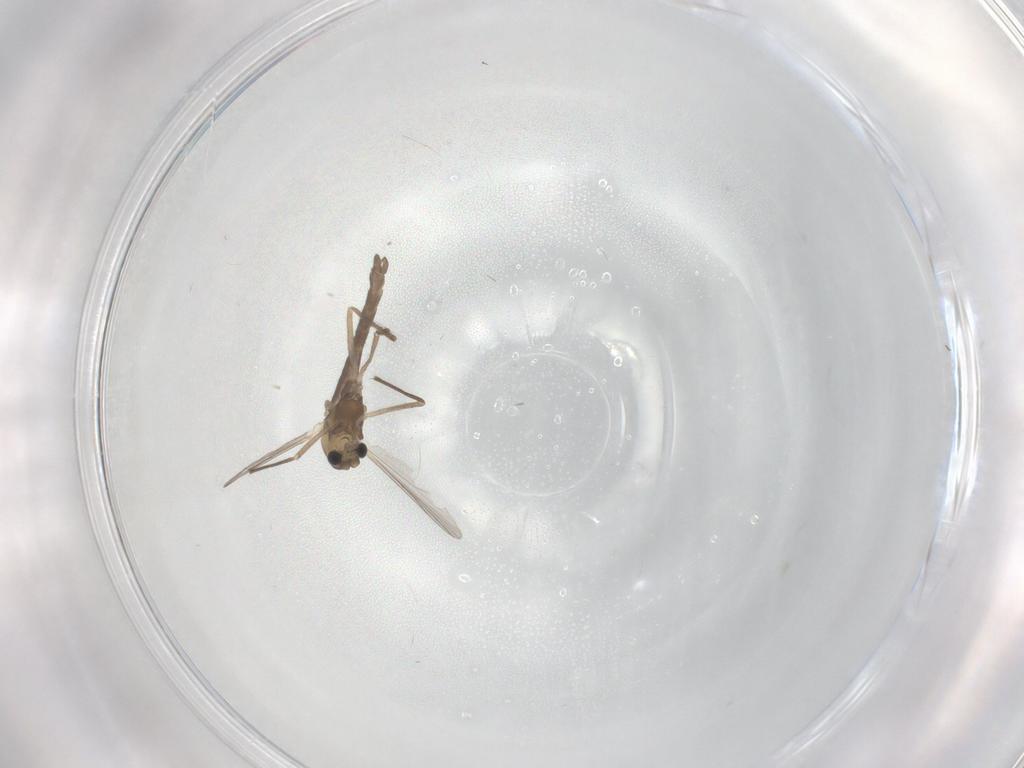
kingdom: Animalia
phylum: Arthropoda
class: Insecta
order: Diptera
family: Chironomidae
